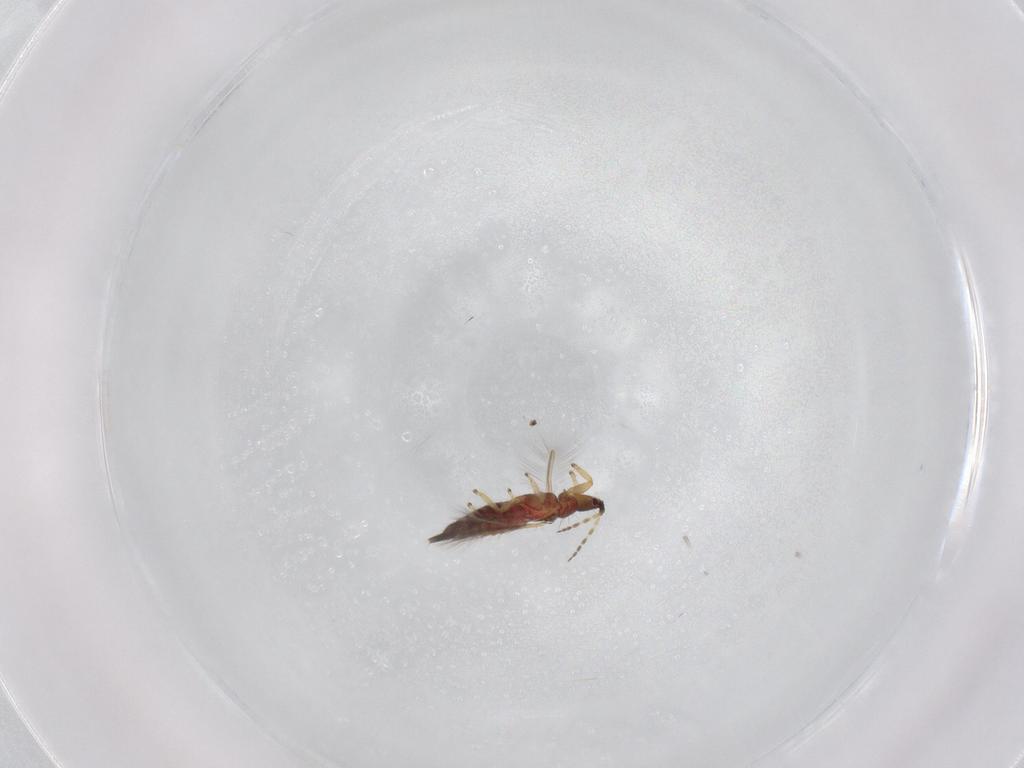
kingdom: Animalia
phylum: Arthropoda
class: Insecta
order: Thysanoptera
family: Phlaeothripidae
